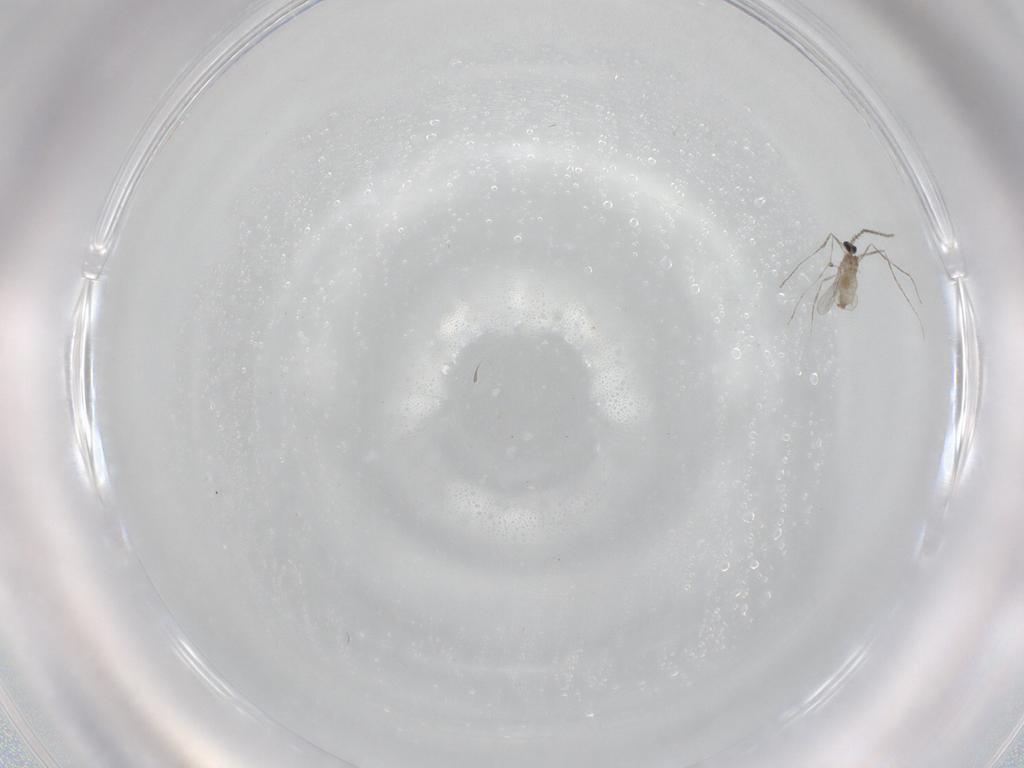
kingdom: Animalia
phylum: Arthropoda
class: Insecta
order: Diptera
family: Dolichopodidae
